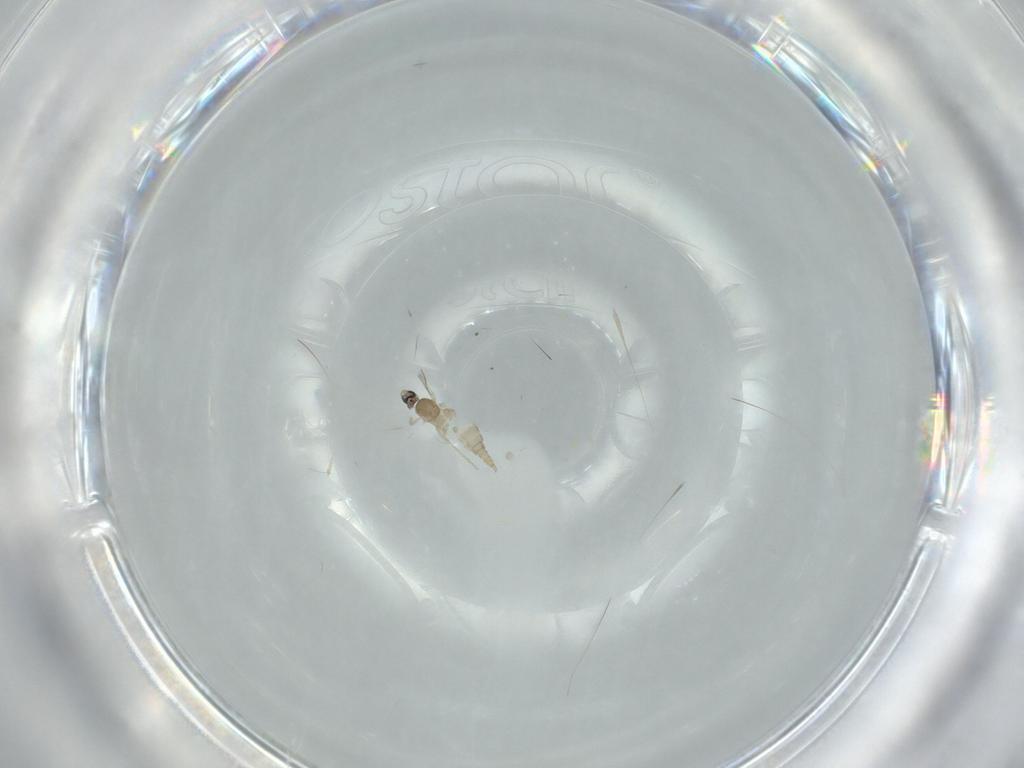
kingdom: Animalia
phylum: Arthropoda
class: Insecta
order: Diptera
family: Cecidomyiidae
